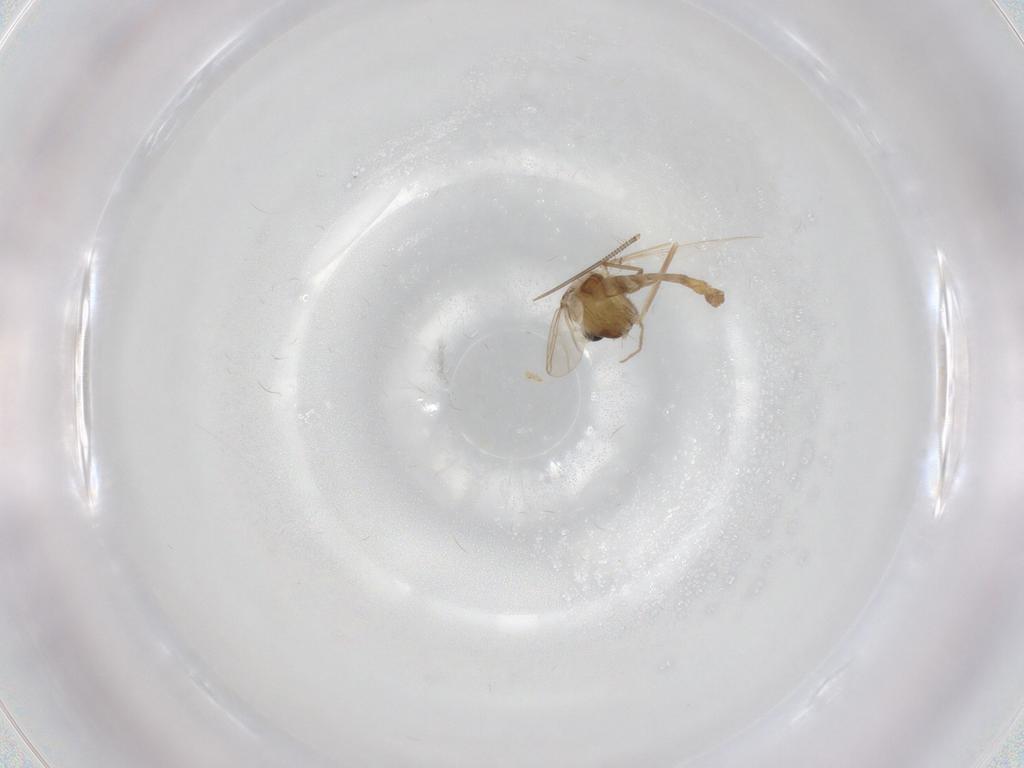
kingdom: Animalia
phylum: Arthropoda
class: Insecta
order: Diptera
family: Chironomidae
